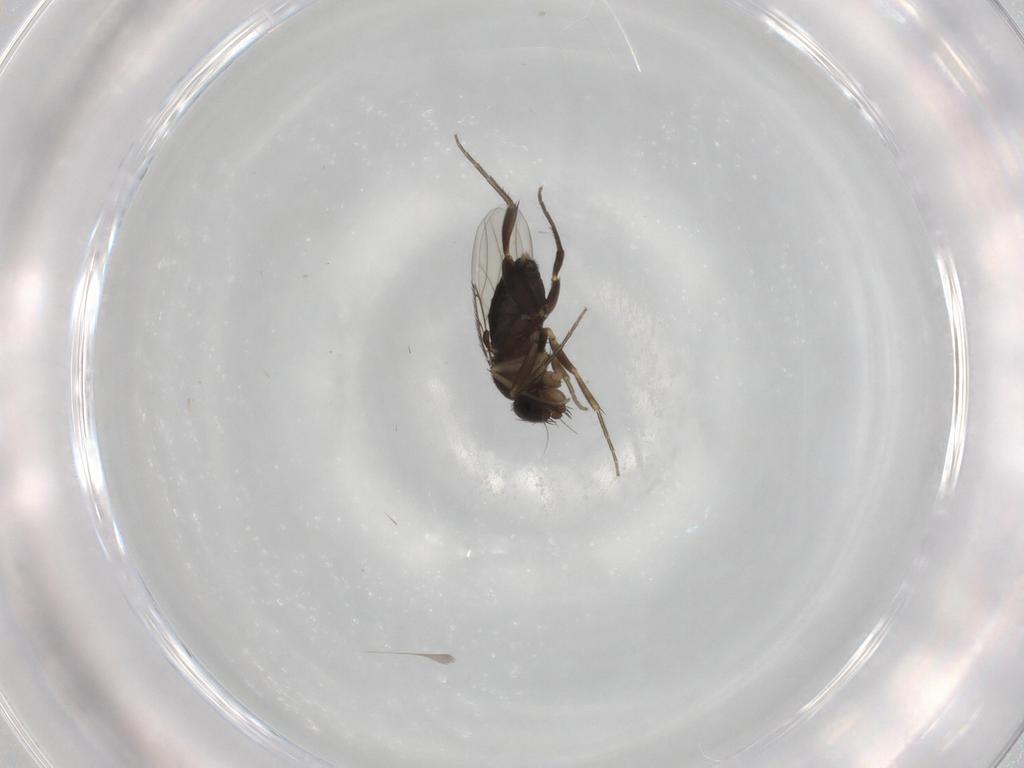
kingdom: Animalia
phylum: Arthropoda
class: Insecta
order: Diptera
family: Phoridae
